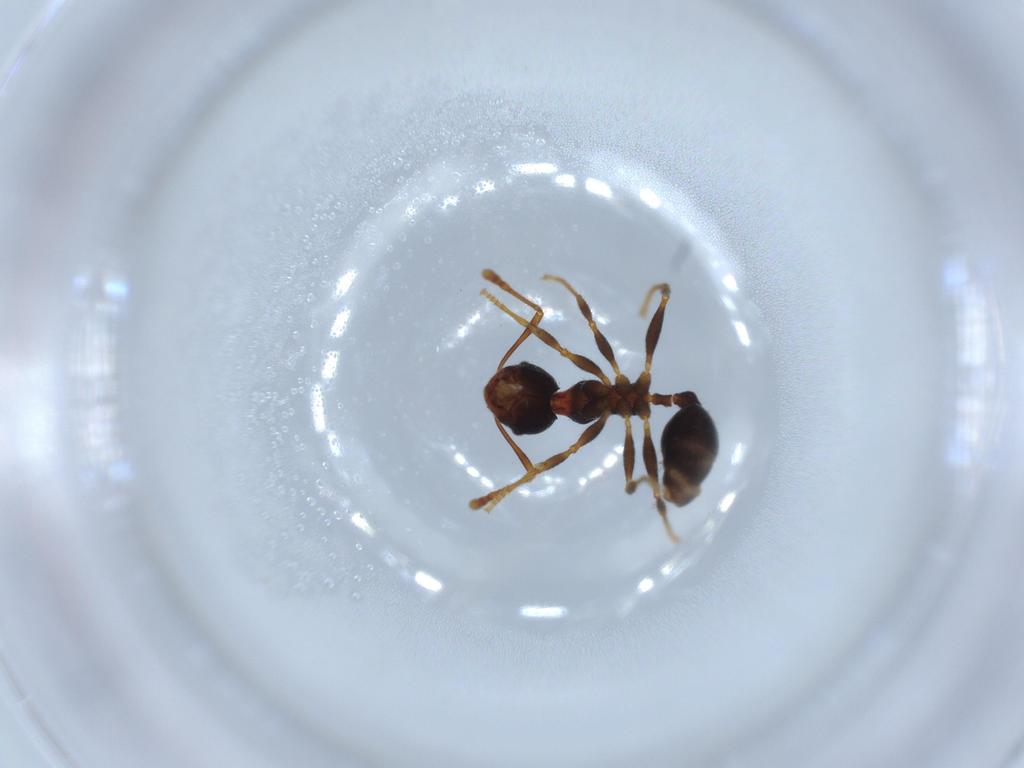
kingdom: Animalia
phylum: Arthropoda
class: Insecta
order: Hymenoptera
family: Formicidae
